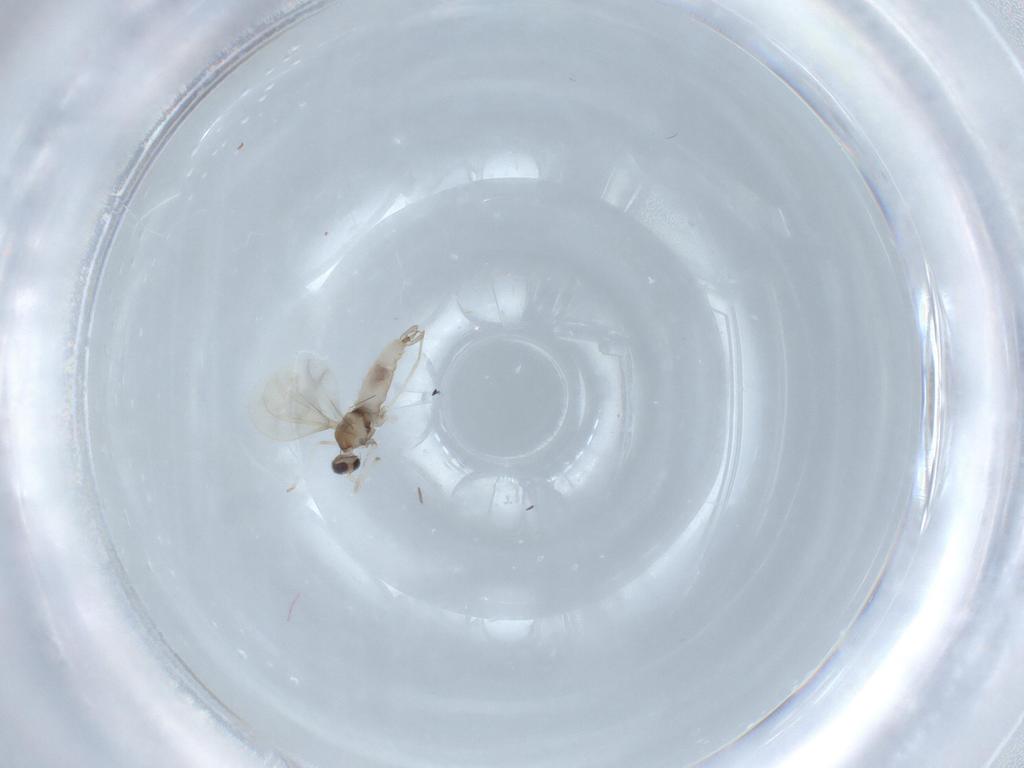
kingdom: Animalia
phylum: Arthropoda
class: Insecta
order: Diptera
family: Cecidomyiidae
